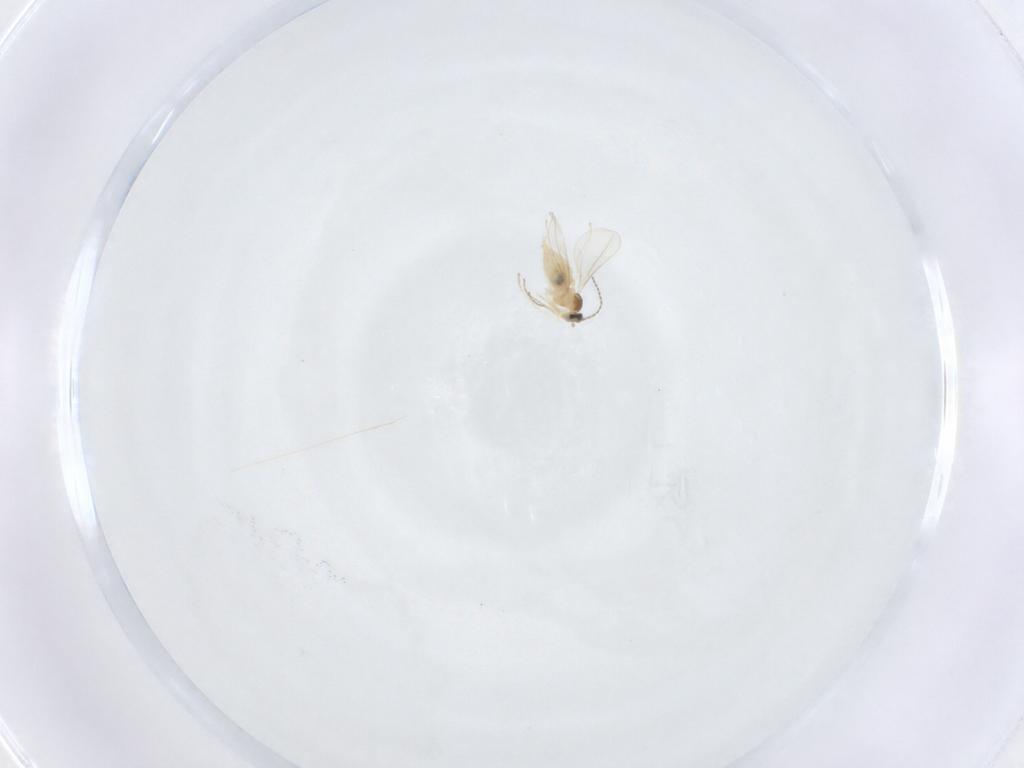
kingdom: Animalia
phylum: Arthropoda
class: Insecta
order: Diptera
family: Cecidomyiidae
